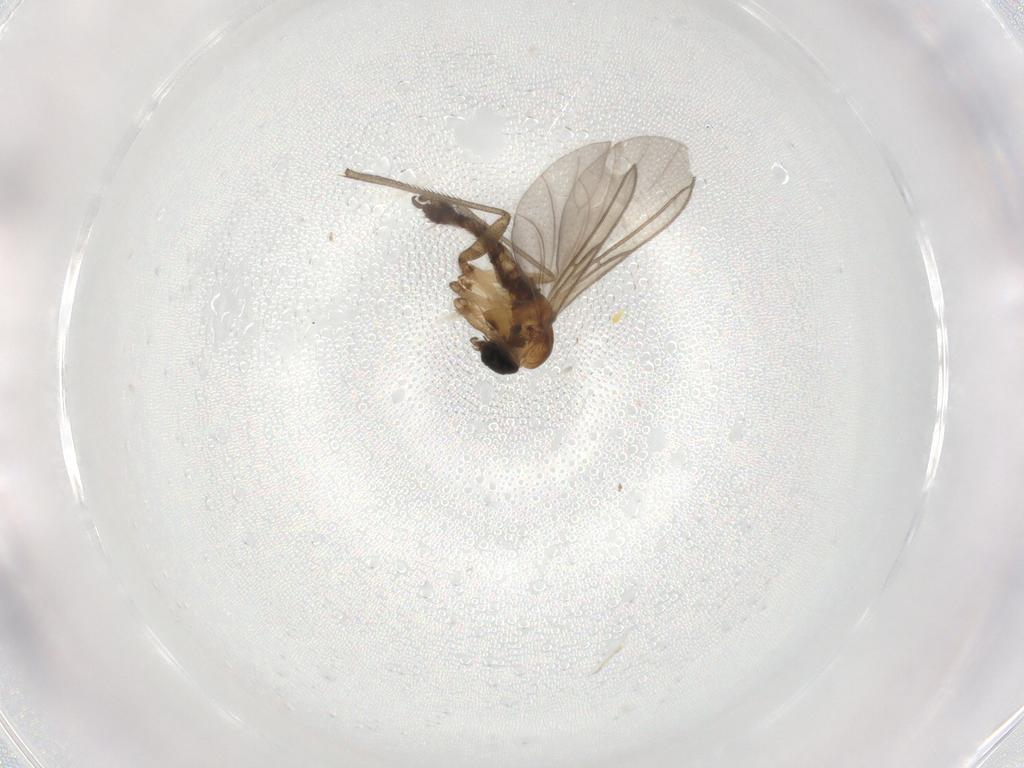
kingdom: Animalia
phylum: Arthropoda
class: Insecta
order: Diptera
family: Sciaridae
